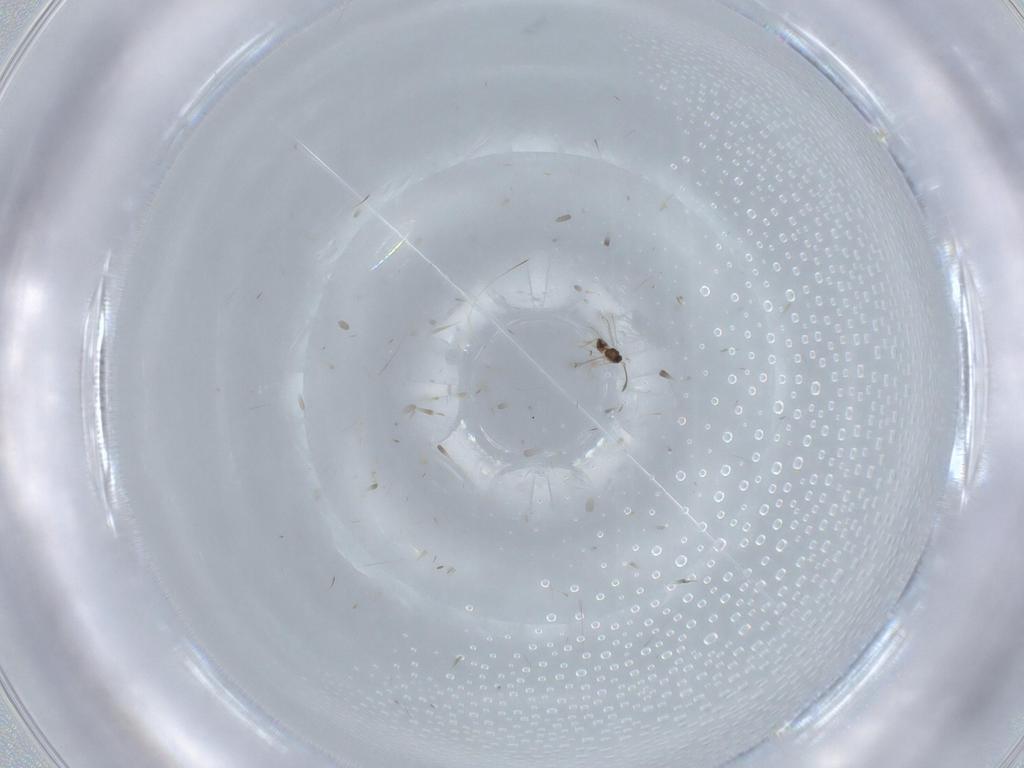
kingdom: Animalia
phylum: Arthropoda
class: Insecta
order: Hymenoptera
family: Mymaridae
